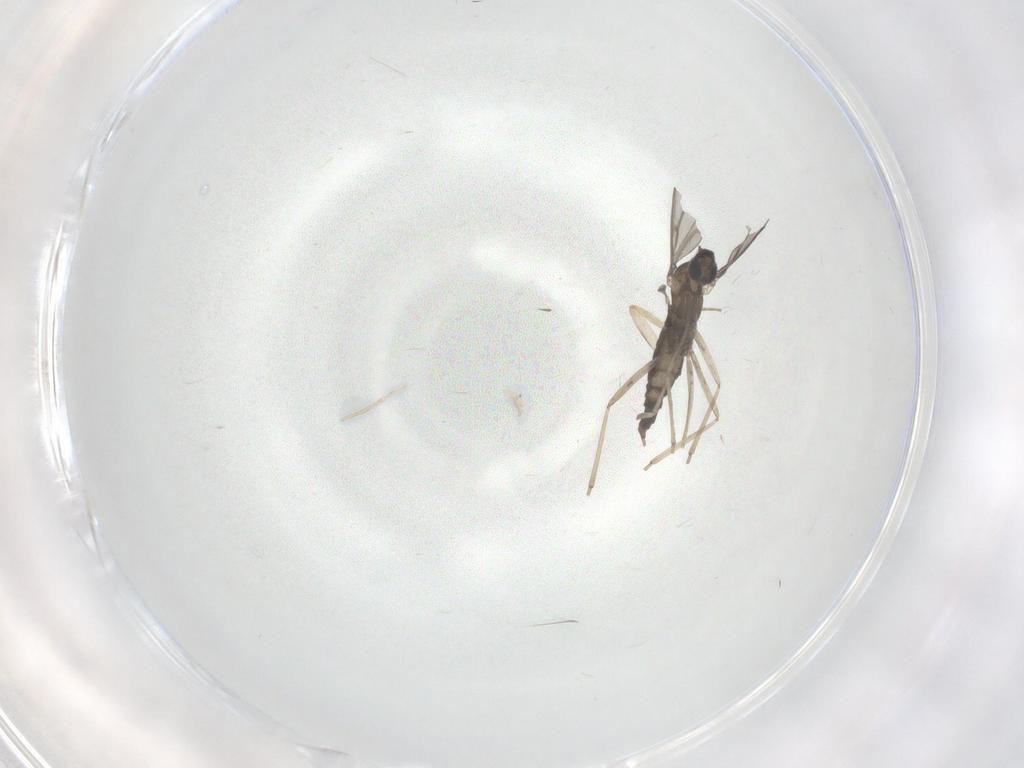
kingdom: Animalia
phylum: Arthropoda
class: Insecta
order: Diptera
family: Phoridae
